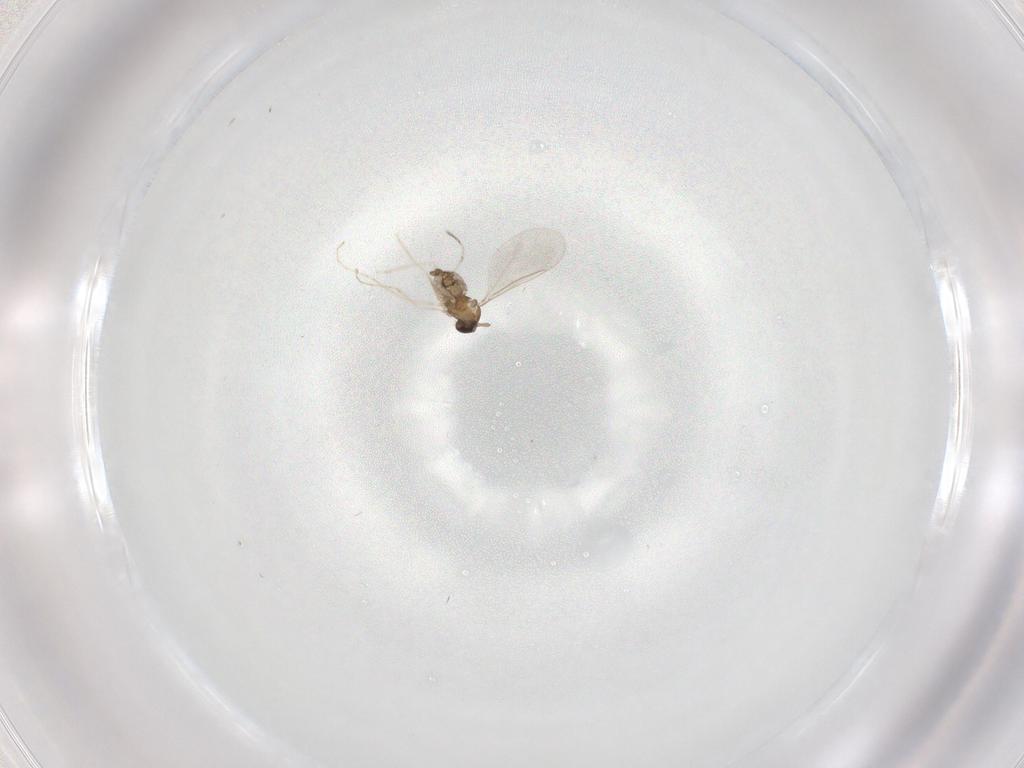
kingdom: Animalia
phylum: Arthropoda
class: Insecta
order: Diptera
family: Cecidomyiidae
